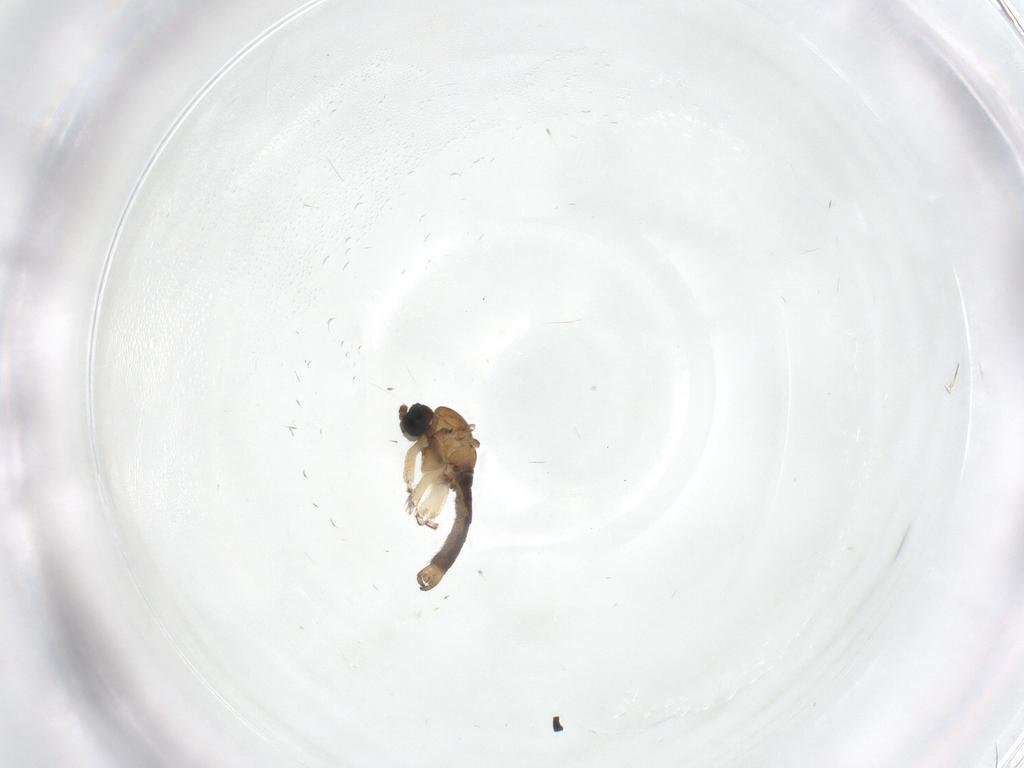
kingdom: Animalia
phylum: Arthropoda
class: Insecta
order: Diptera
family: Sciaridae
